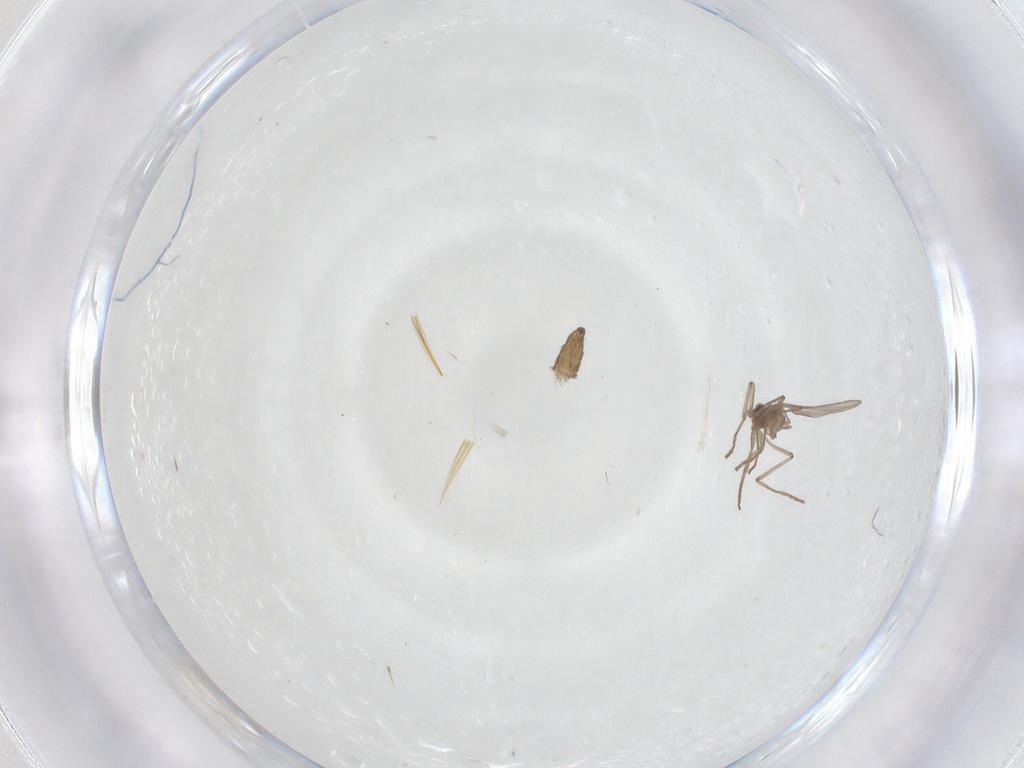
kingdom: Animalia
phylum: Arthropoda
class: Insecta
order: Diptera
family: Cecidomyiidae
